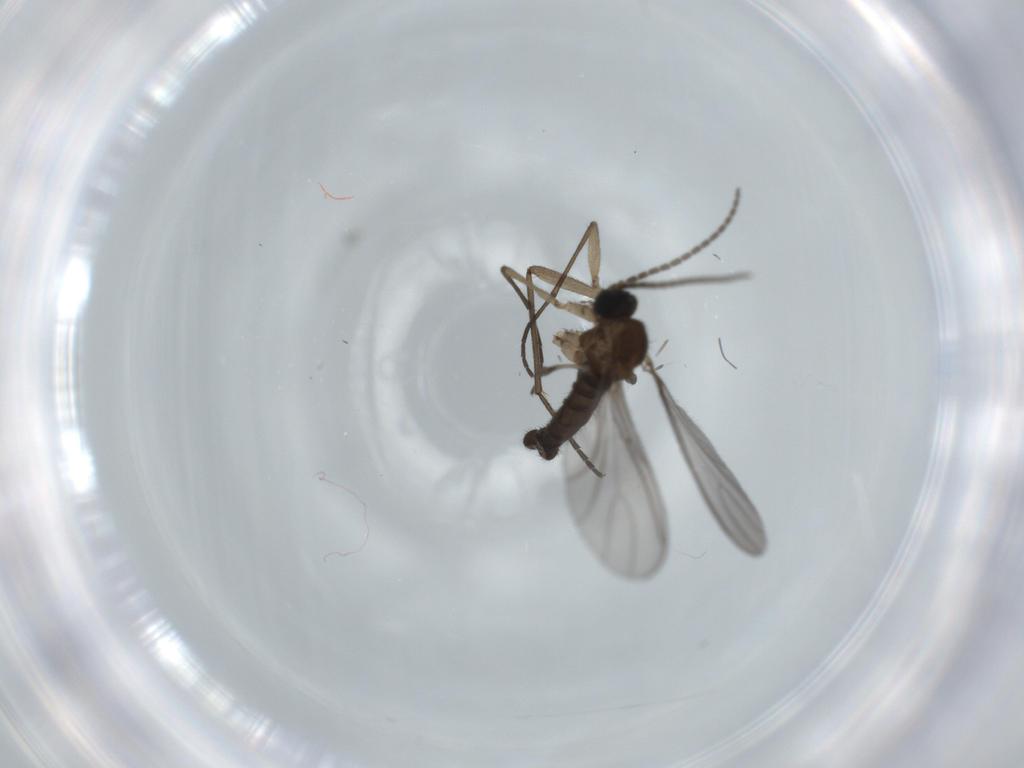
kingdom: Animalia
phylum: Arthropoda
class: Insecta
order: Diptera
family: Sciaridae
